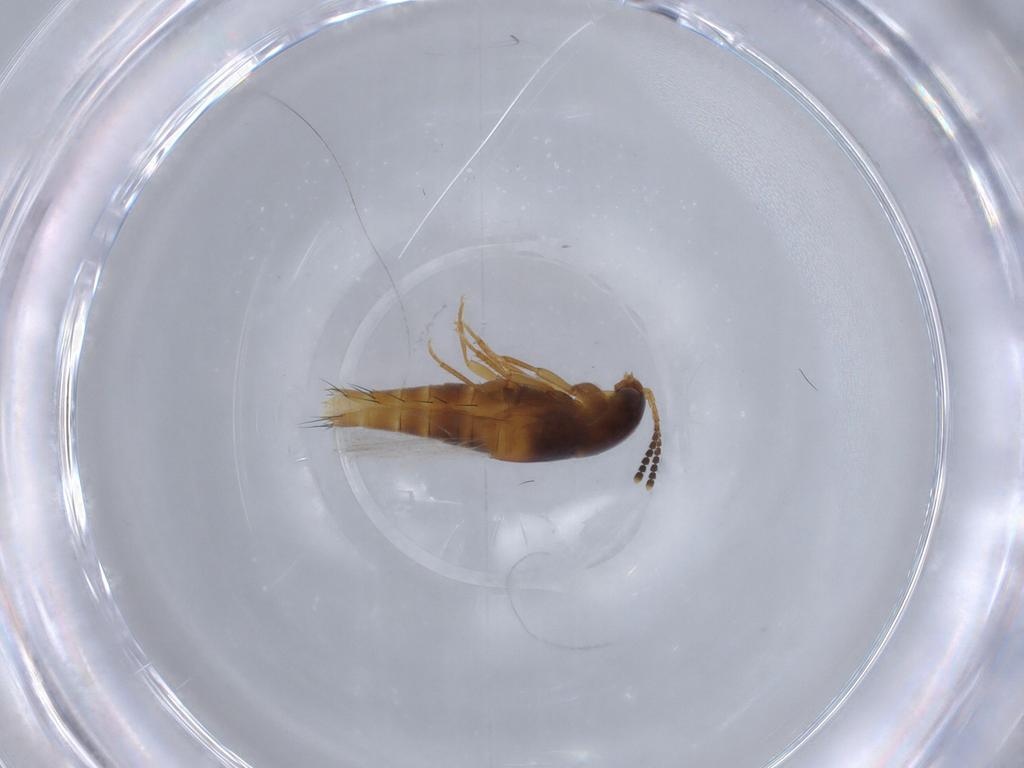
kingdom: Animalia
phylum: Arthropoda
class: Insecta
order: Coleoptera
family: Staphylinidae
